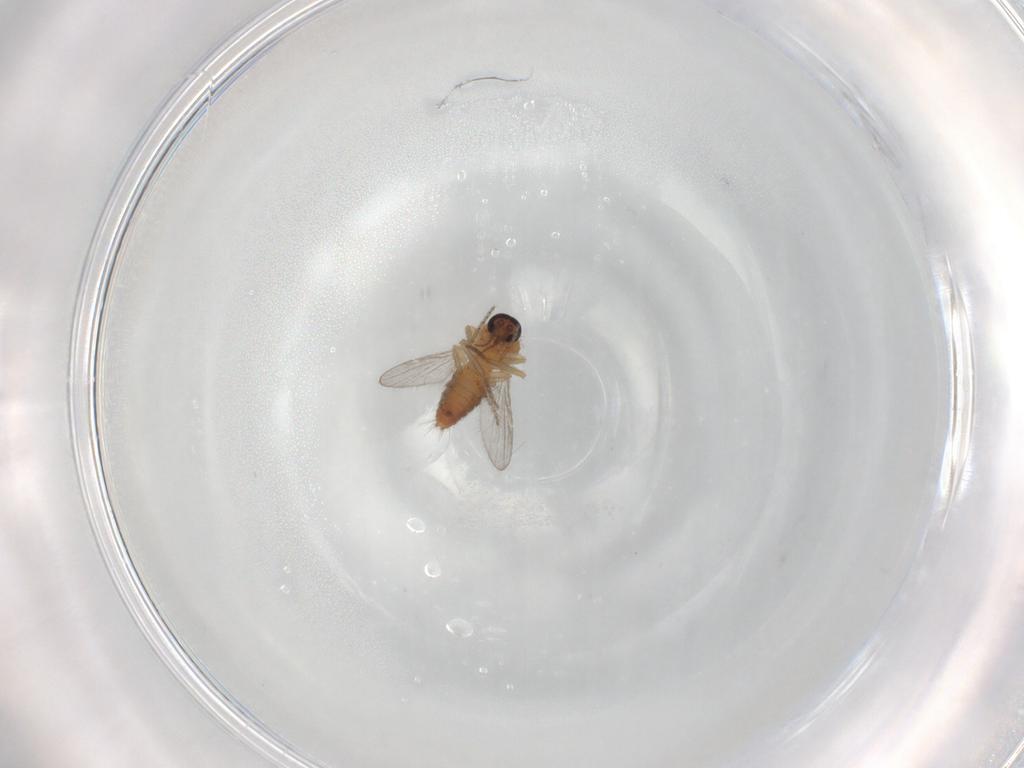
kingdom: Animalia
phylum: Arthropoda
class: Insecta
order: Diptera
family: Ceratopogonidae
